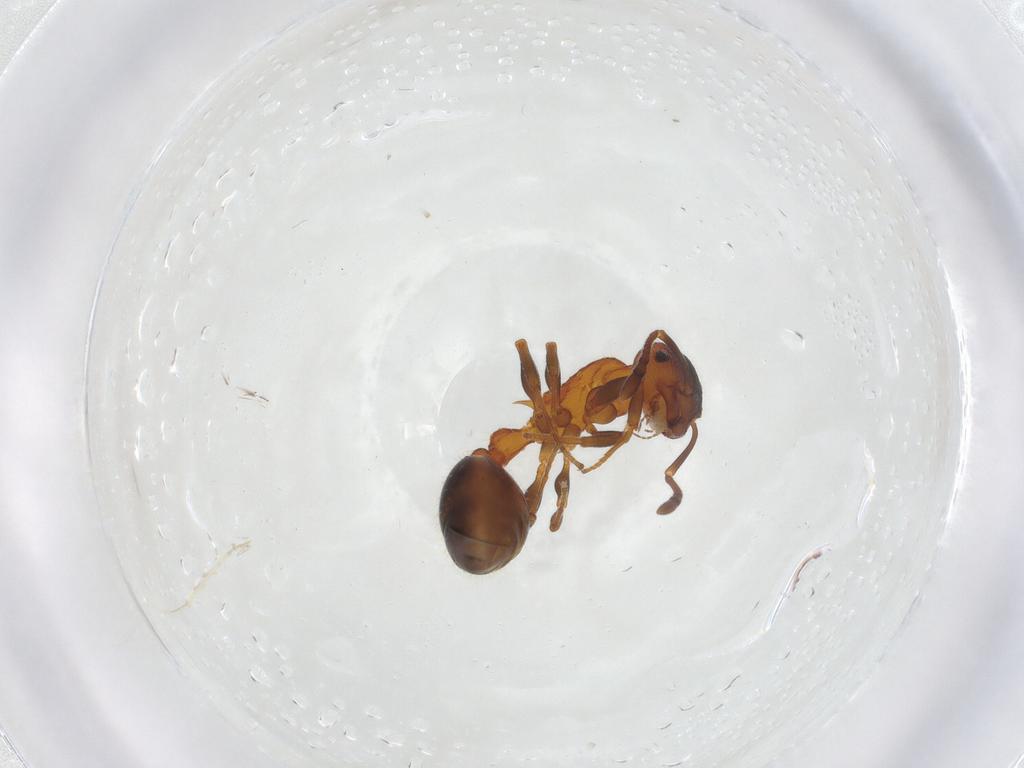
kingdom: Animalia
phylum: Arthropoda
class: Insecta
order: Hymenoptera
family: Formicidae
